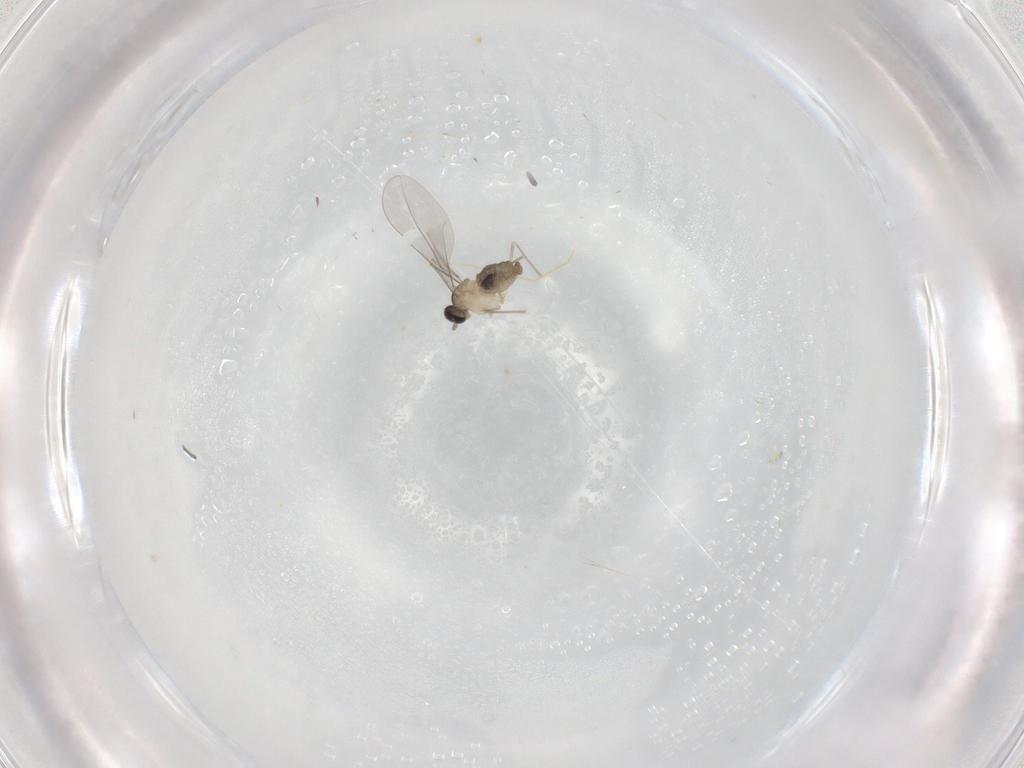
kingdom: Animalia
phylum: Arthropoda
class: Insecta
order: Diptera
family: Cecidomyiidae
